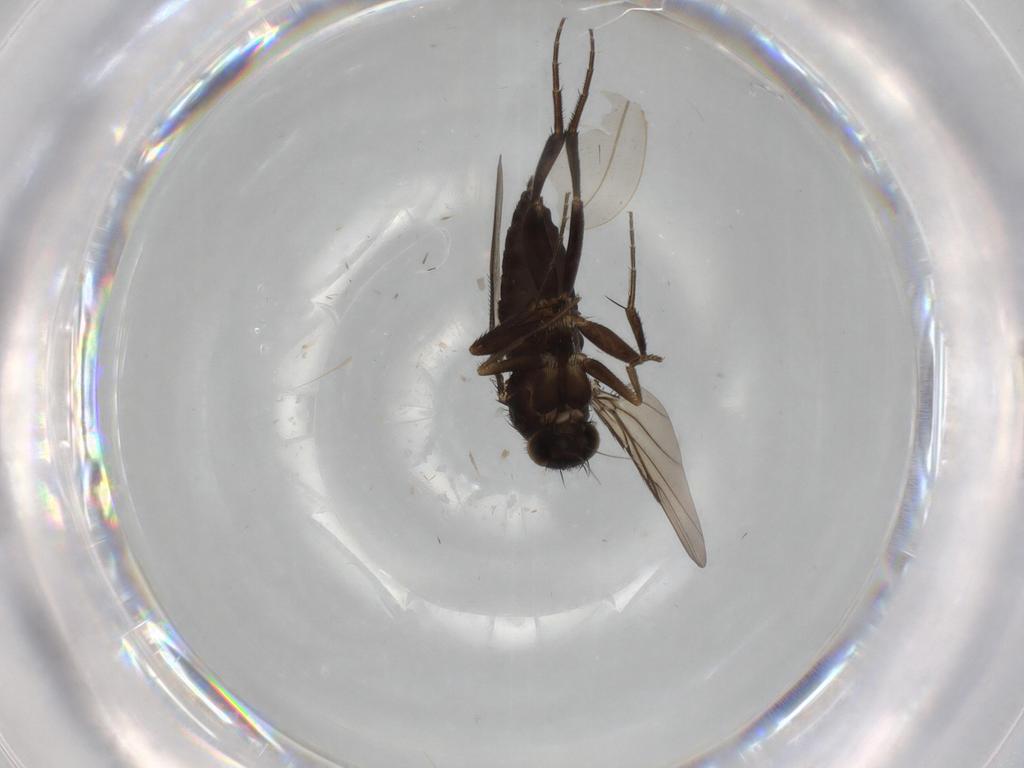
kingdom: Animalia
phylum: Arthropoda
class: Insecta
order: Diptera
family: Phoridae
